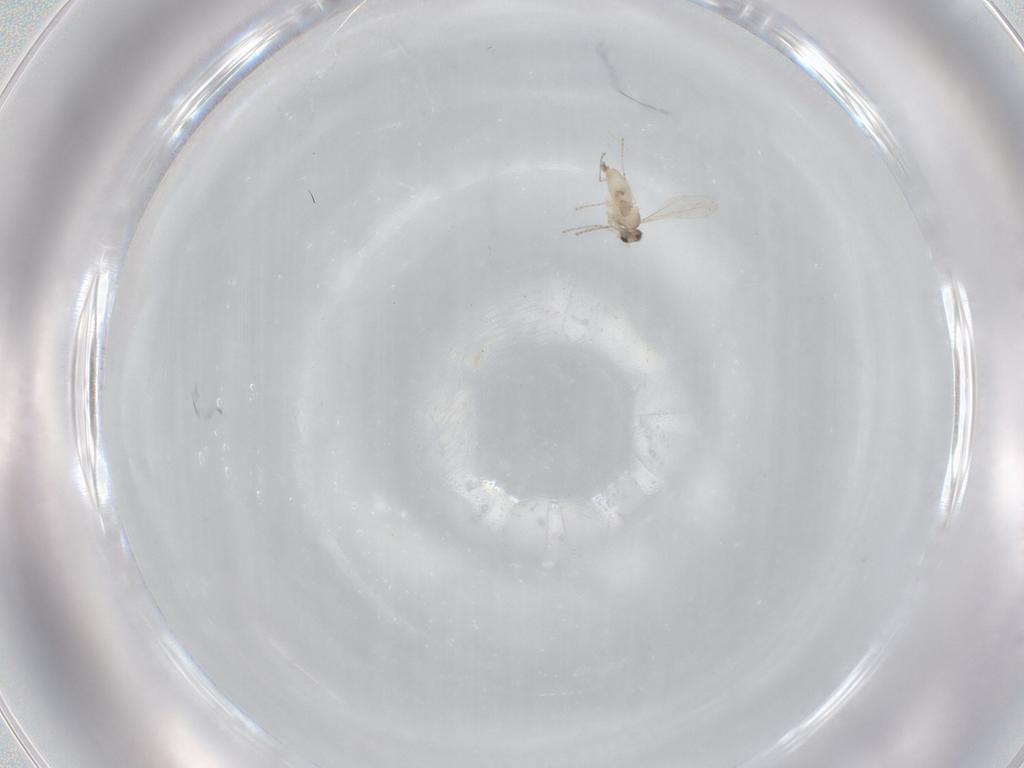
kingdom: Animalia
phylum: Arthropoda
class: Insecta
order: Diptera
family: Cecidomyiidae
